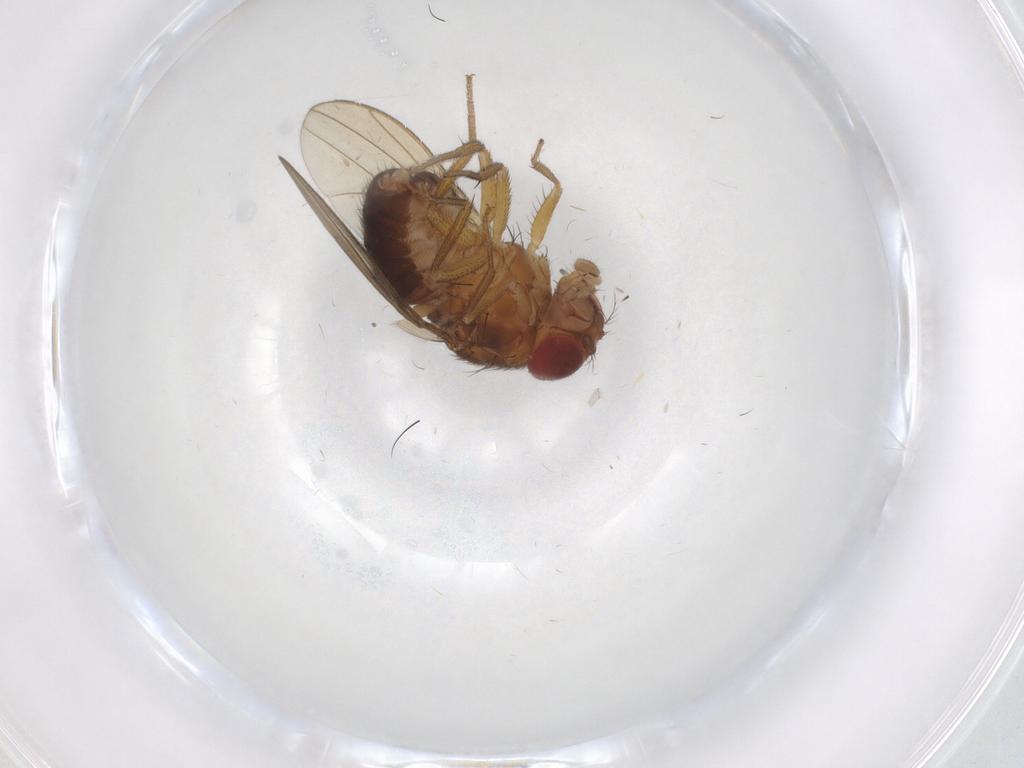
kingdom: Animalia
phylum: Arthropoda
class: Insecta
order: Diptera
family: Drosophilidae
